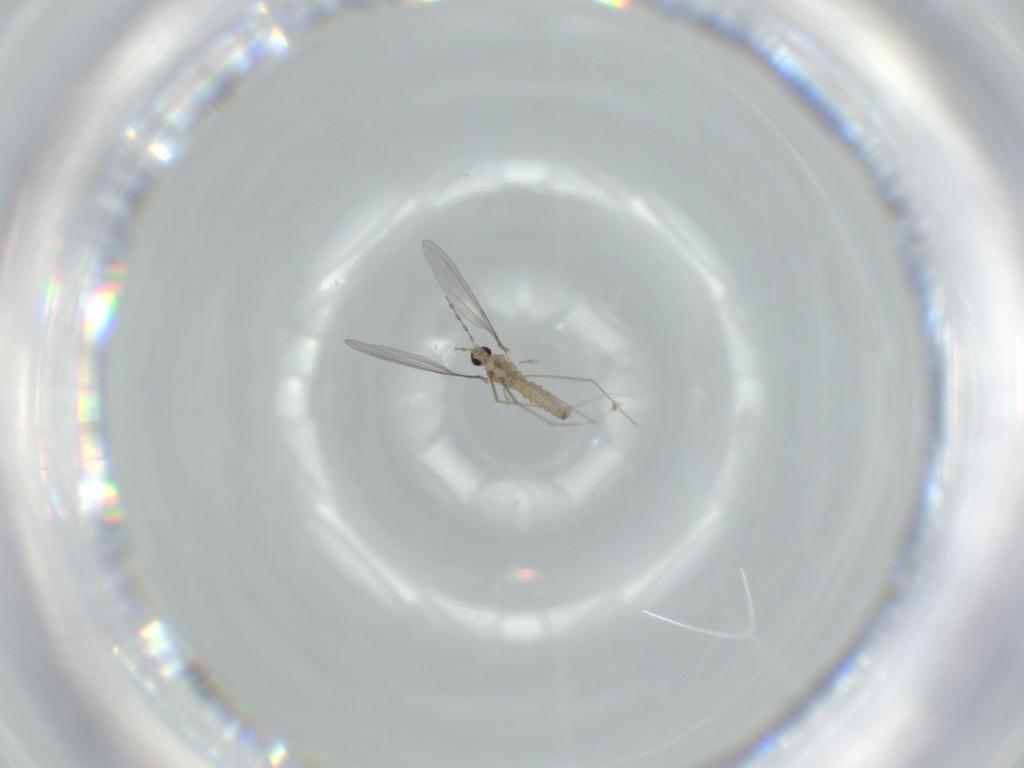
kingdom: Animalia
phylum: Arthropoda
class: Insecta
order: Diptera
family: Cecidomyiidae
